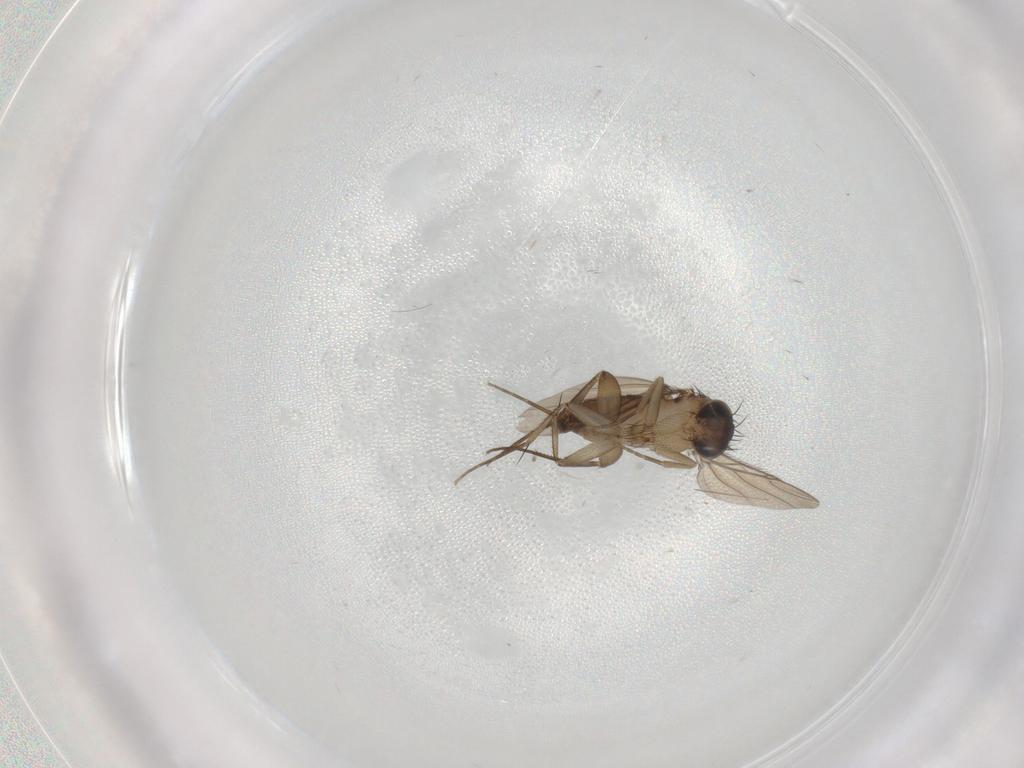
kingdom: Animalia
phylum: Arthropoda
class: Insecta
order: Diptera
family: Phoridae
